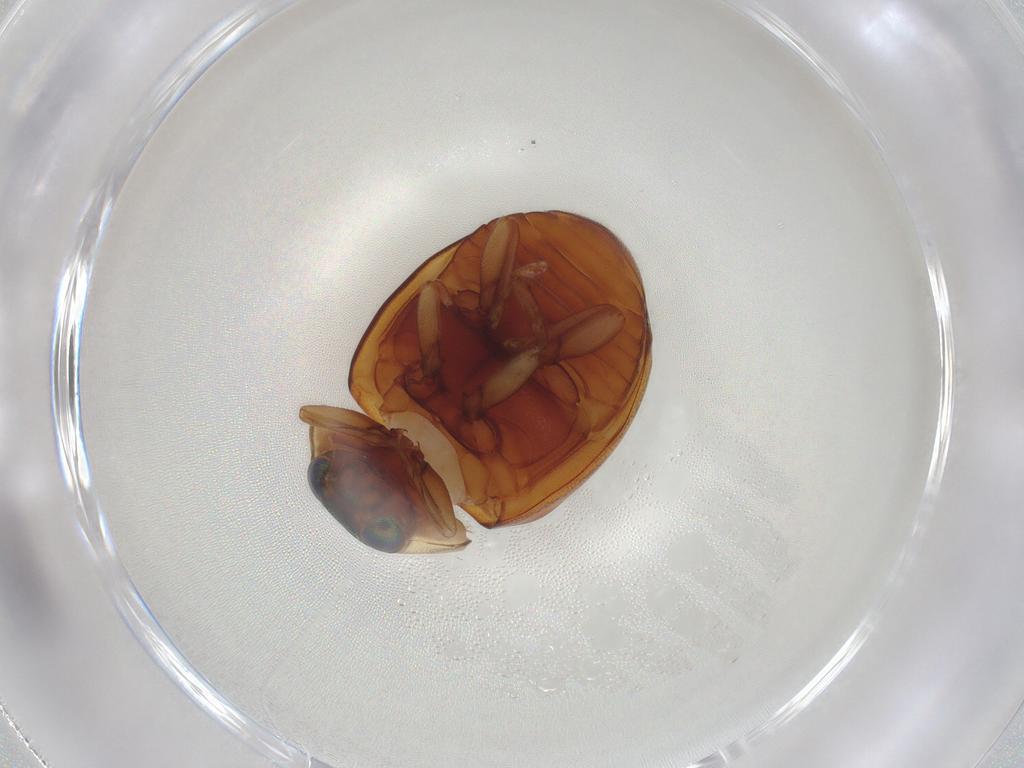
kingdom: Animalia
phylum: Arthropoda
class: Insecta
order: Coleoptera
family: Coccinellidae
